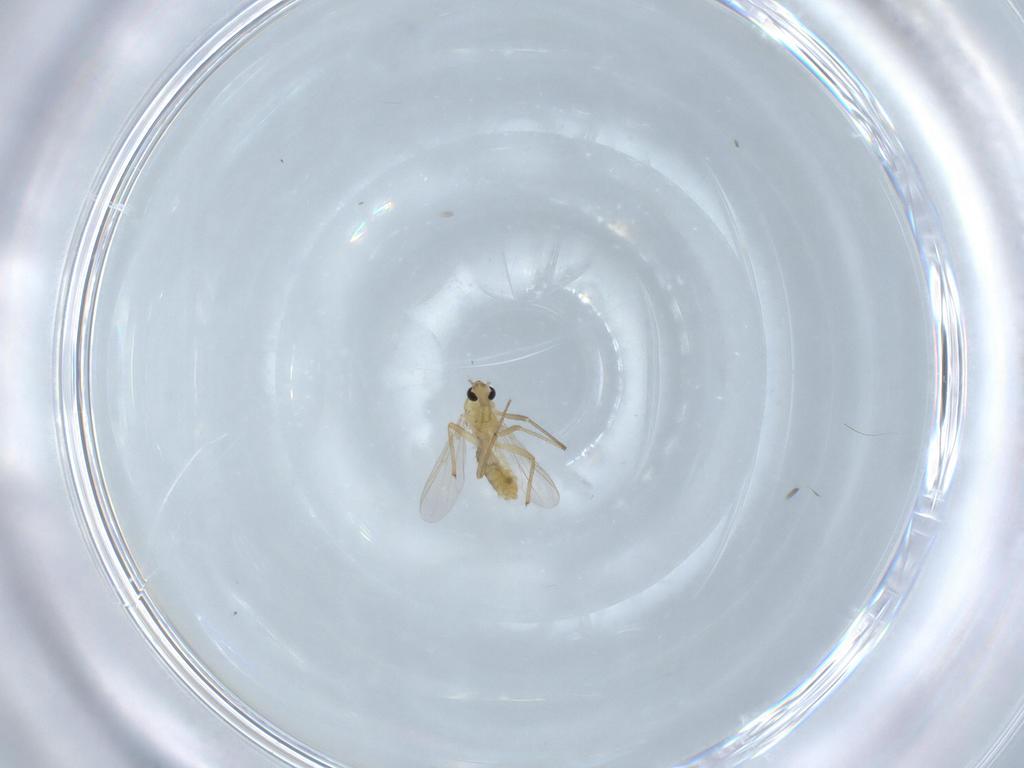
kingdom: Animalia
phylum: Arthropoda
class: Insecta
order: Diptera
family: Chironomidae
